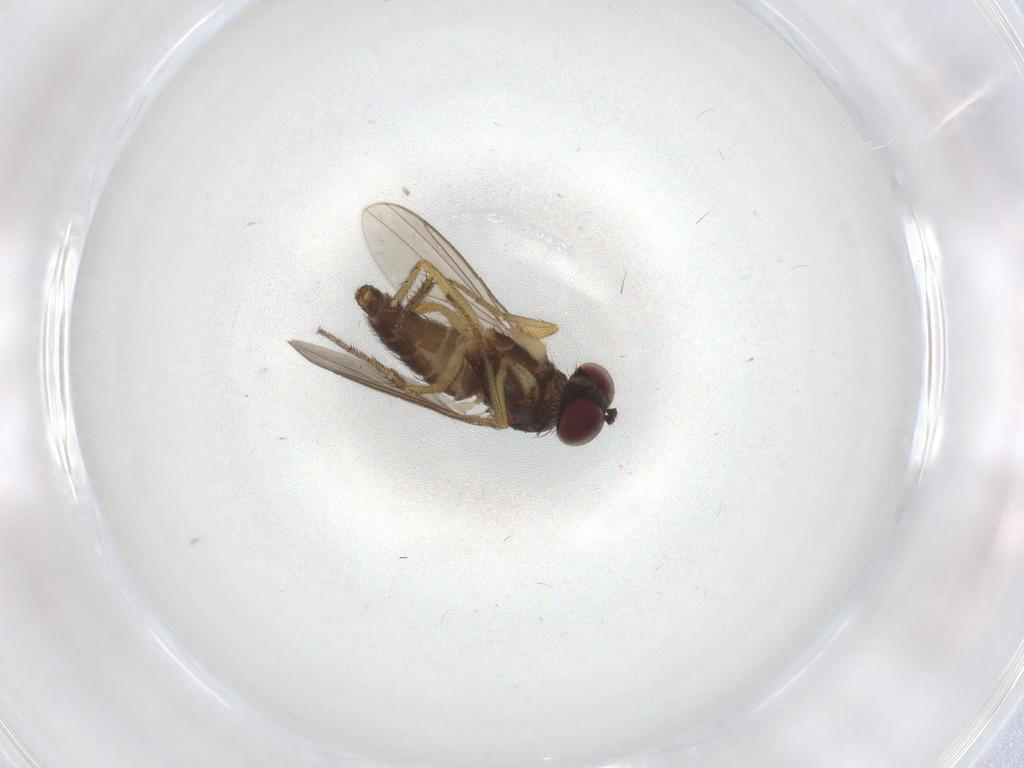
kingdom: Animalia
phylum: Arthropoda
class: Insecta
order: Diptera
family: Dolichopodidae
